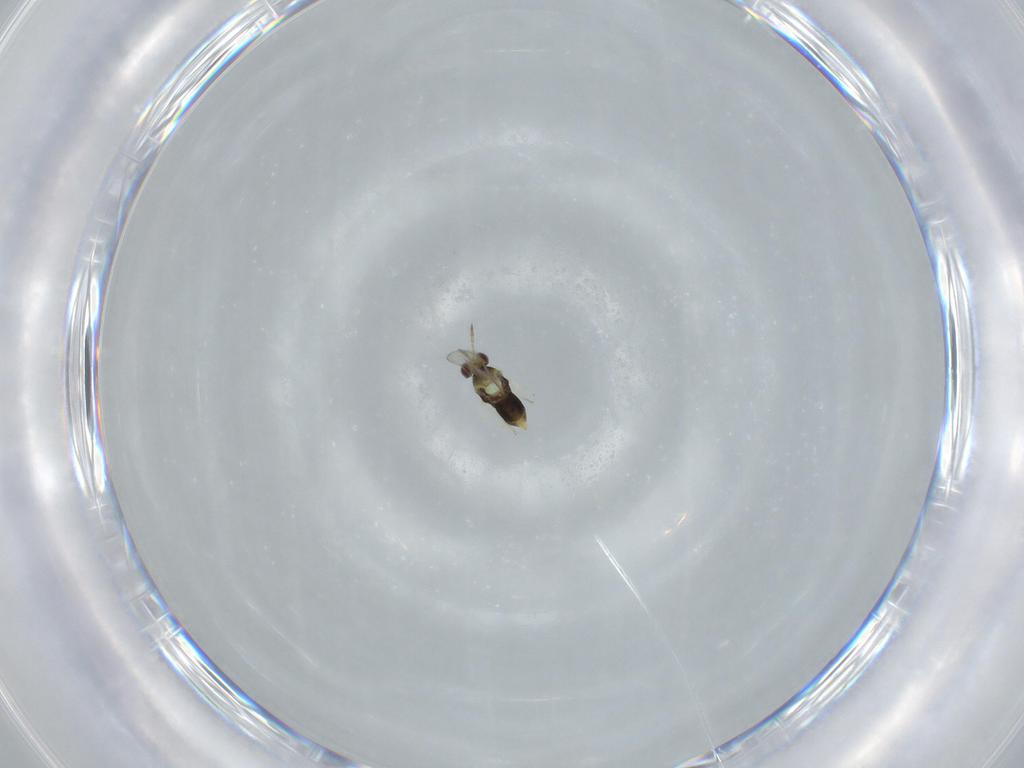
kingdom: Animalia
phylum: Arthropoda
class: Insecta
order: Hymenoptera
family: Aphelinidae
